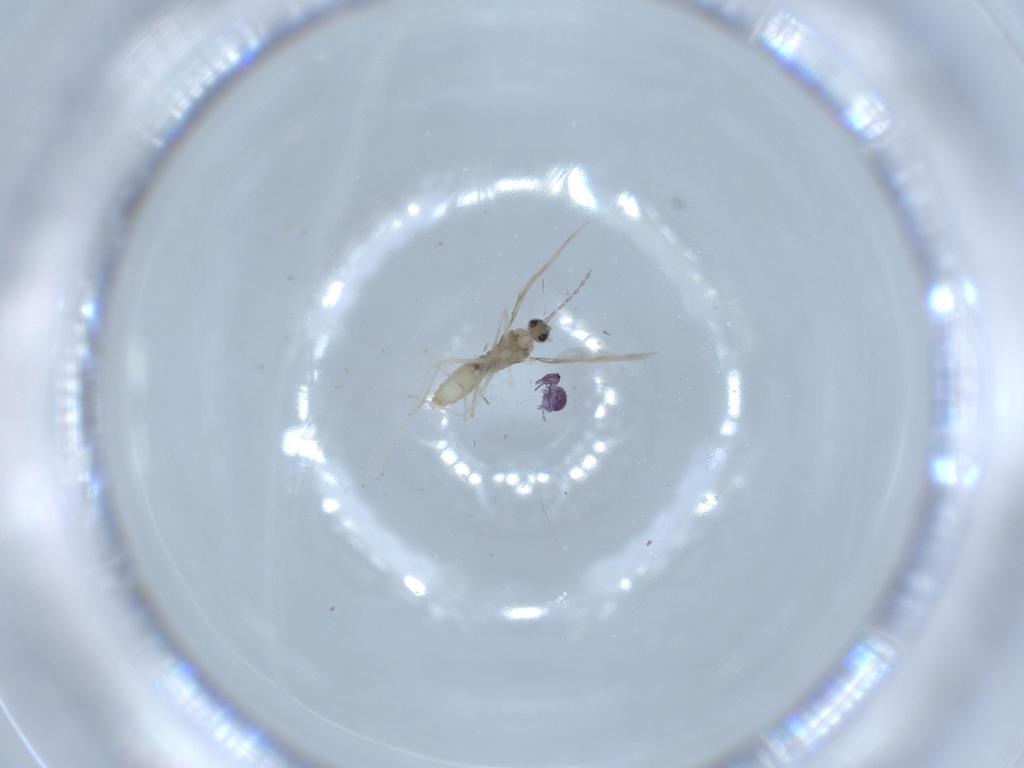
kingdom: Animalia
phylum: Arthropoda
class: Insecta
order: Diptera
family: Cecidomyiidae
